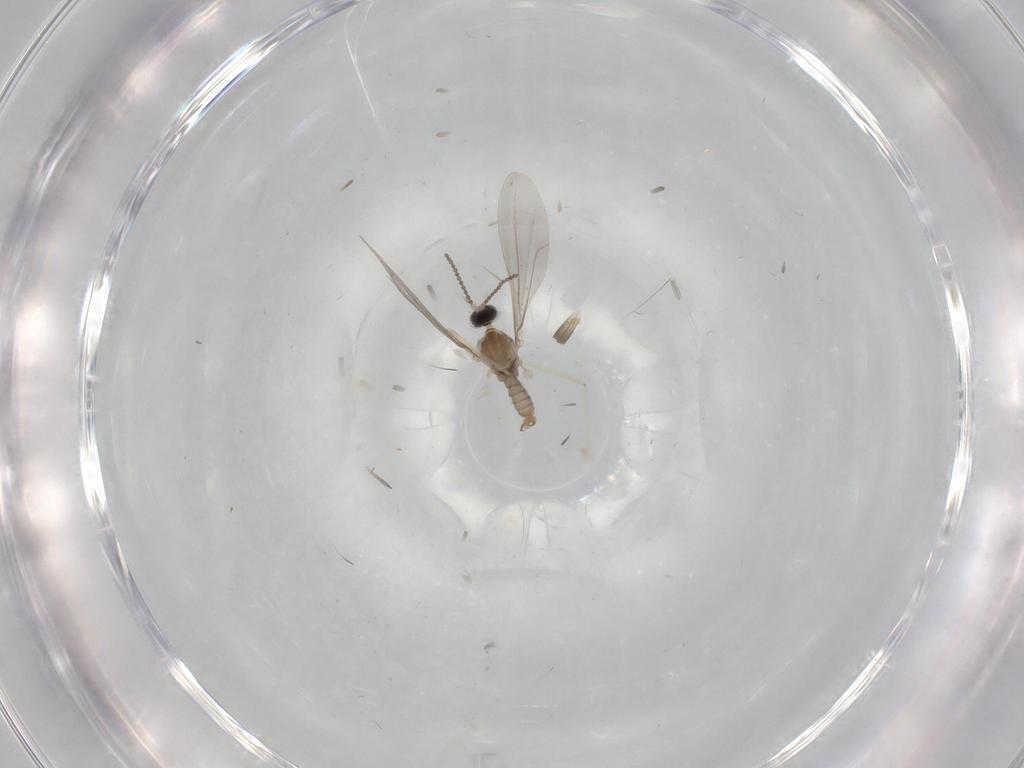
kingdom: Animalia
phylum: Arthropoda
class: Insecta
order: Diptera
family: Cecidomyiidae
